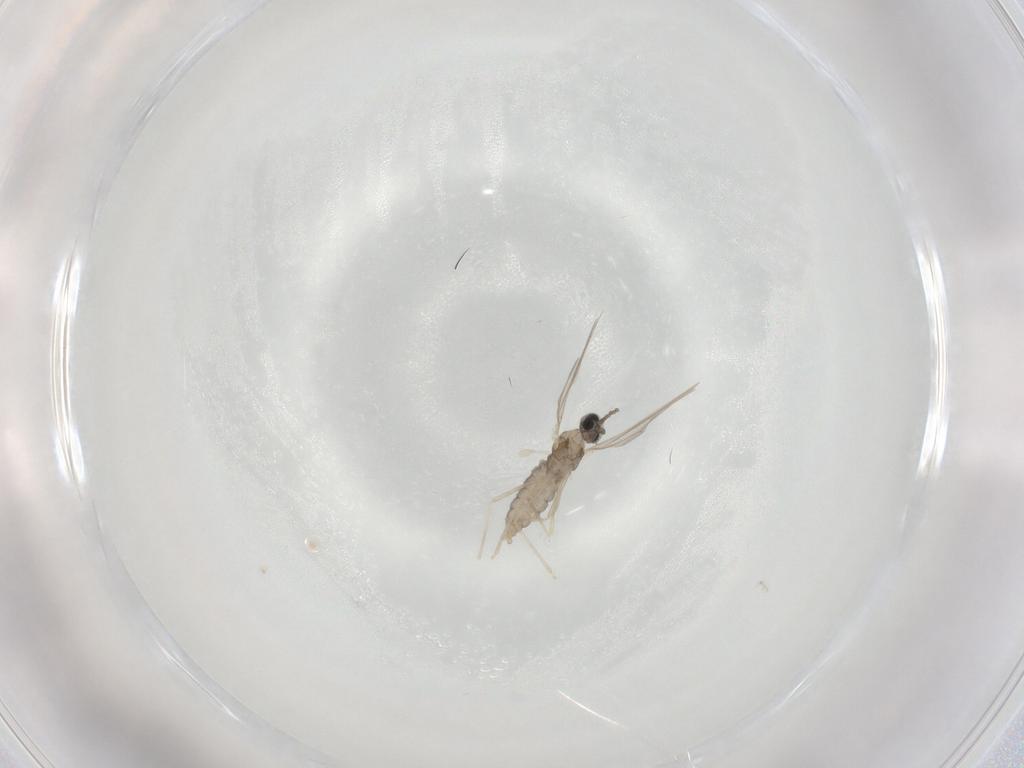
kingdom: Animalia
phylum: Arthropoda
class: Insecta
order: Diptera
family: Cecidomyiidae
